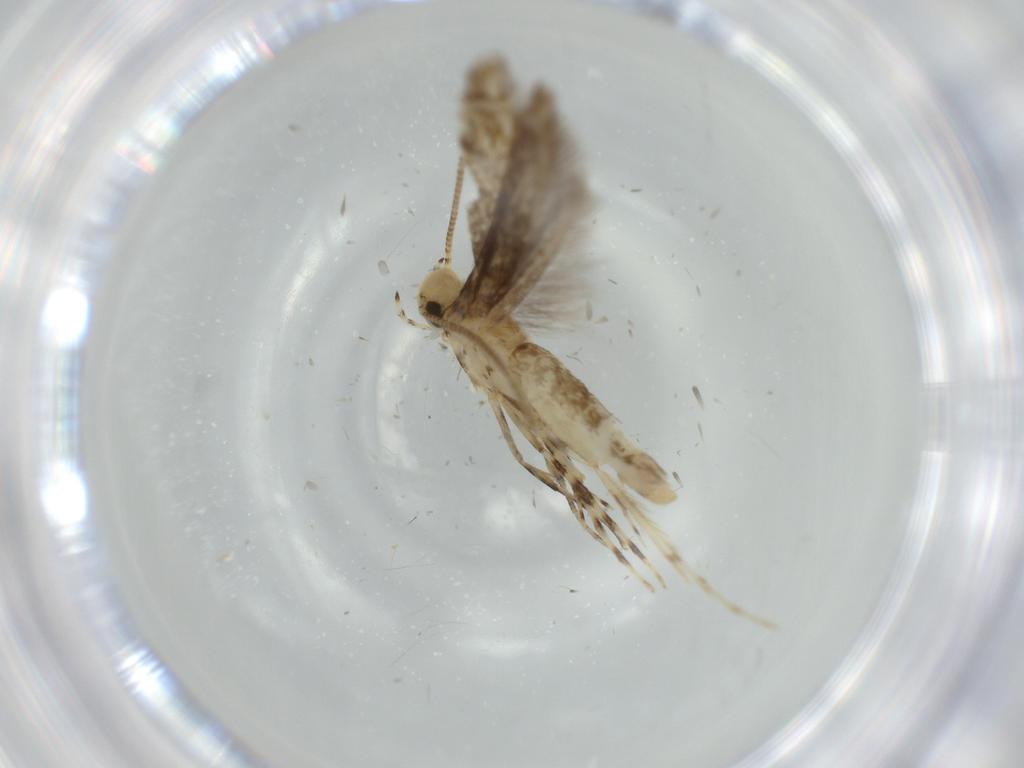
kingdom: Animalia
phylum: Arthropoda
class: Insecta
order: Lepidoptera
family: Gracillariidae
